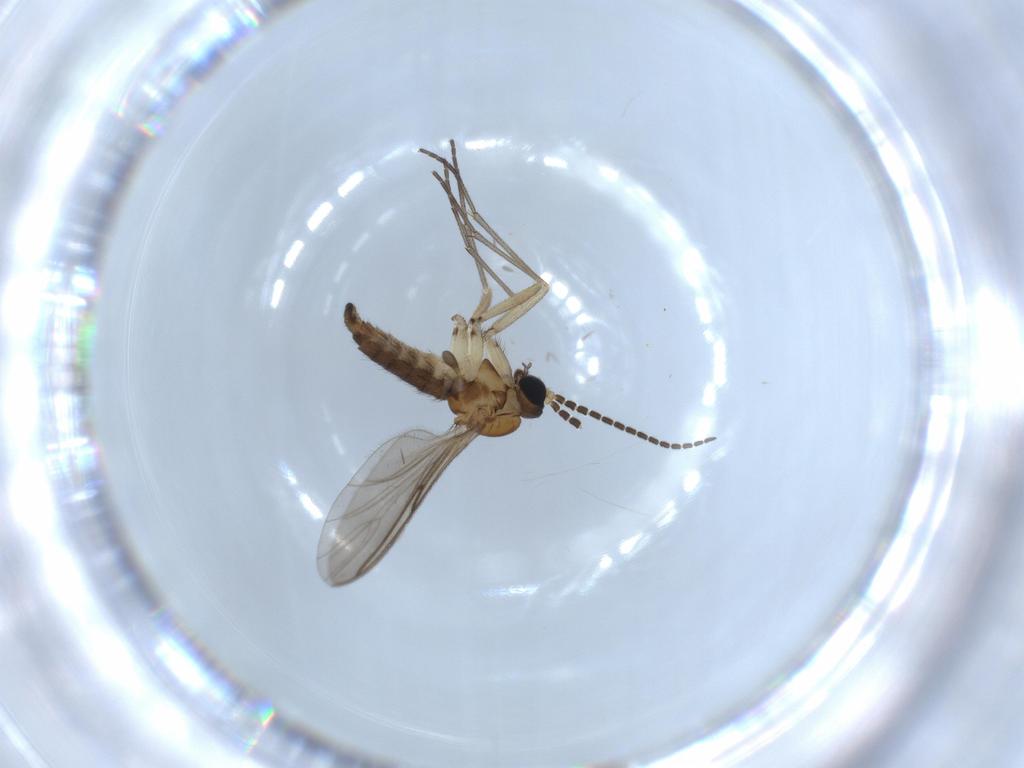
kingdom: Animalia
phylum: Arthropoda
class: Insecta
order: Diptera
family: Sciaridae
